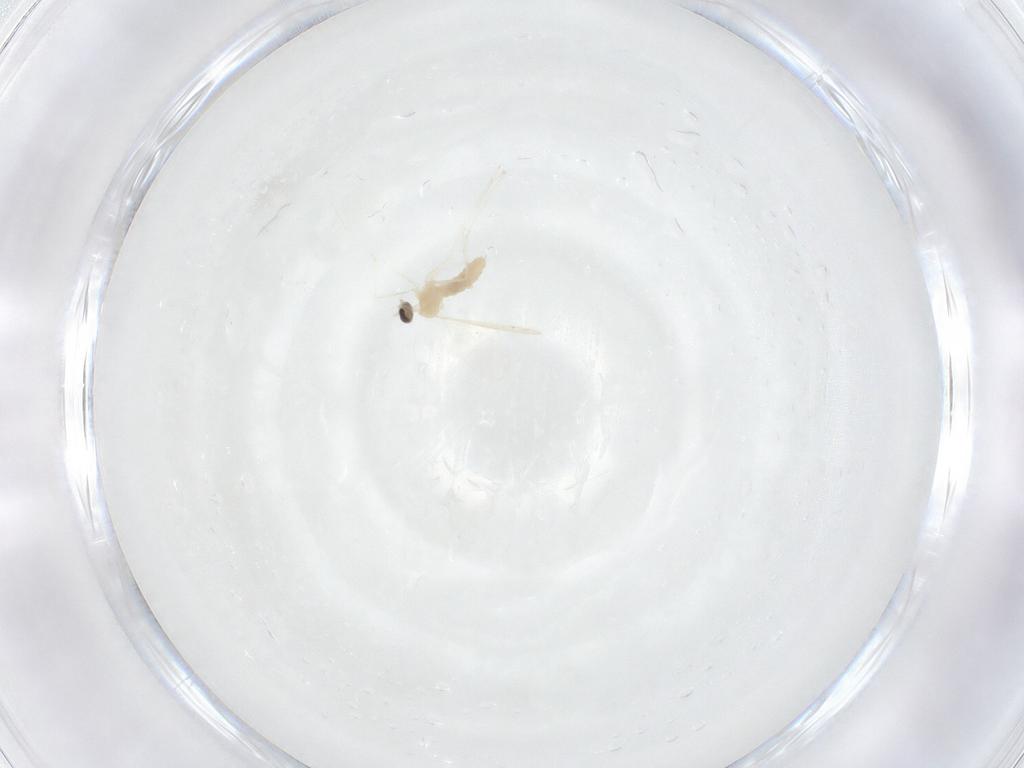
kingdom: Animalia
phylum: Arthropoda
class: Insecta
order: Diptera
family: Cecidomyiidae
